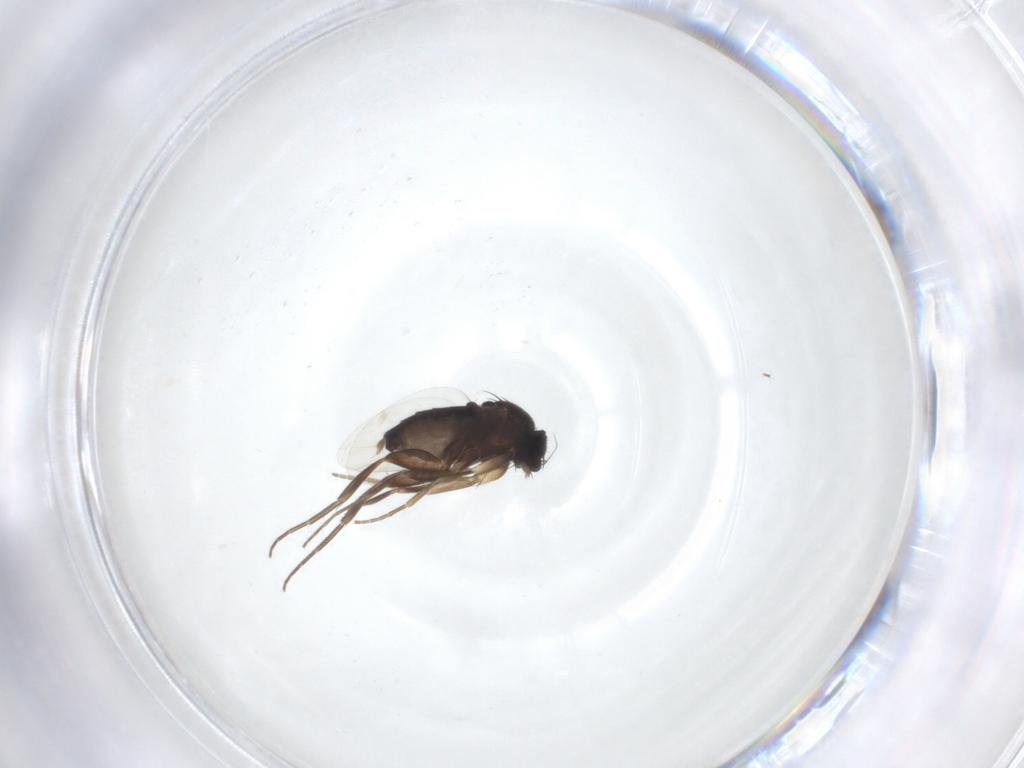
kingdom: Animalia
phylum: Arthropoda
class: Insecta
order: Diptera
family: Phoridae
